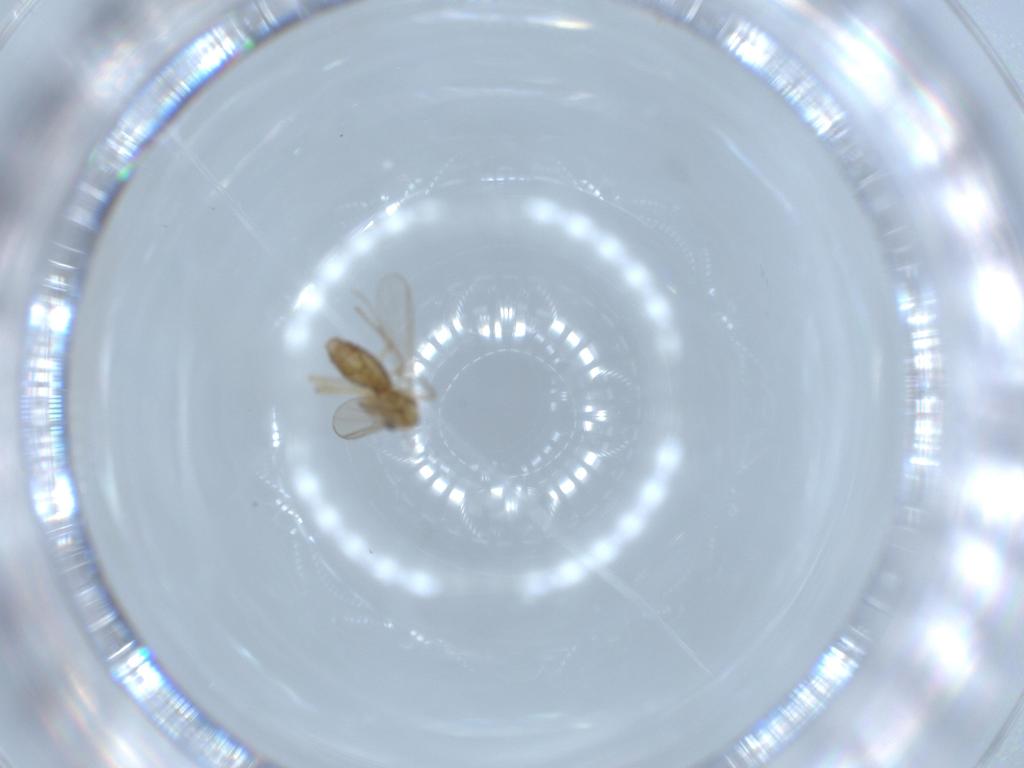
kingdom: Animalia
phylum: Arthropoda
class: Insecta
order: Diptera
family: Chironomidae
